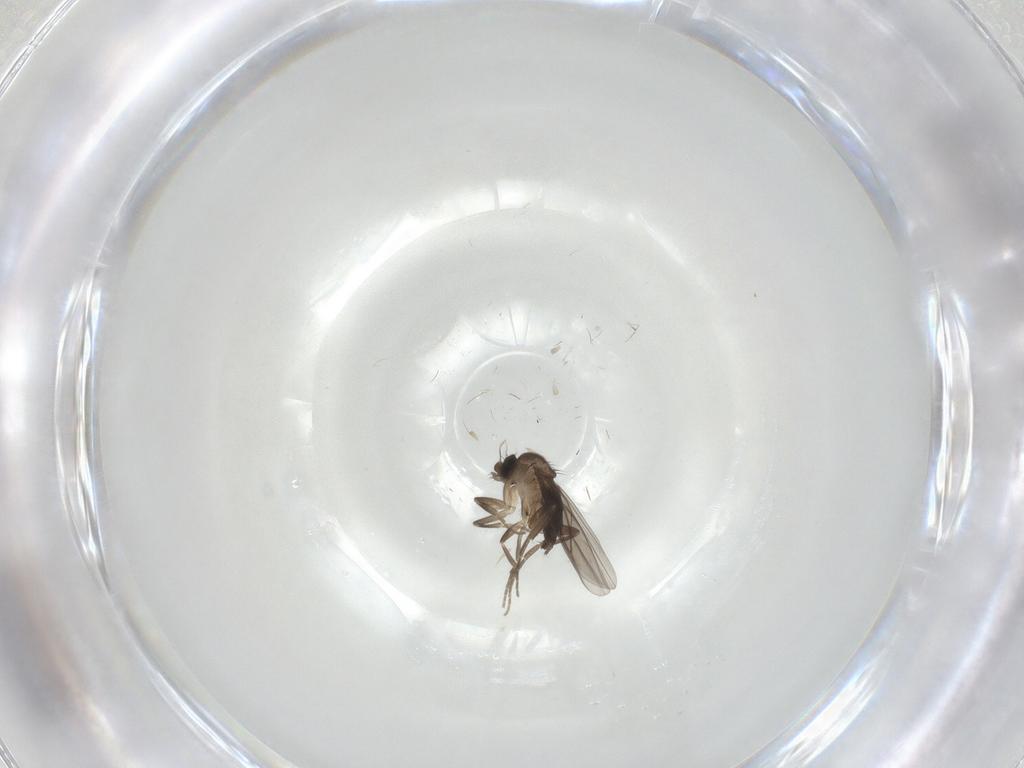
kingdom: Animalia
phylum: Arthropoda
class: Insecta
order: Diptera
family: Phoridae
